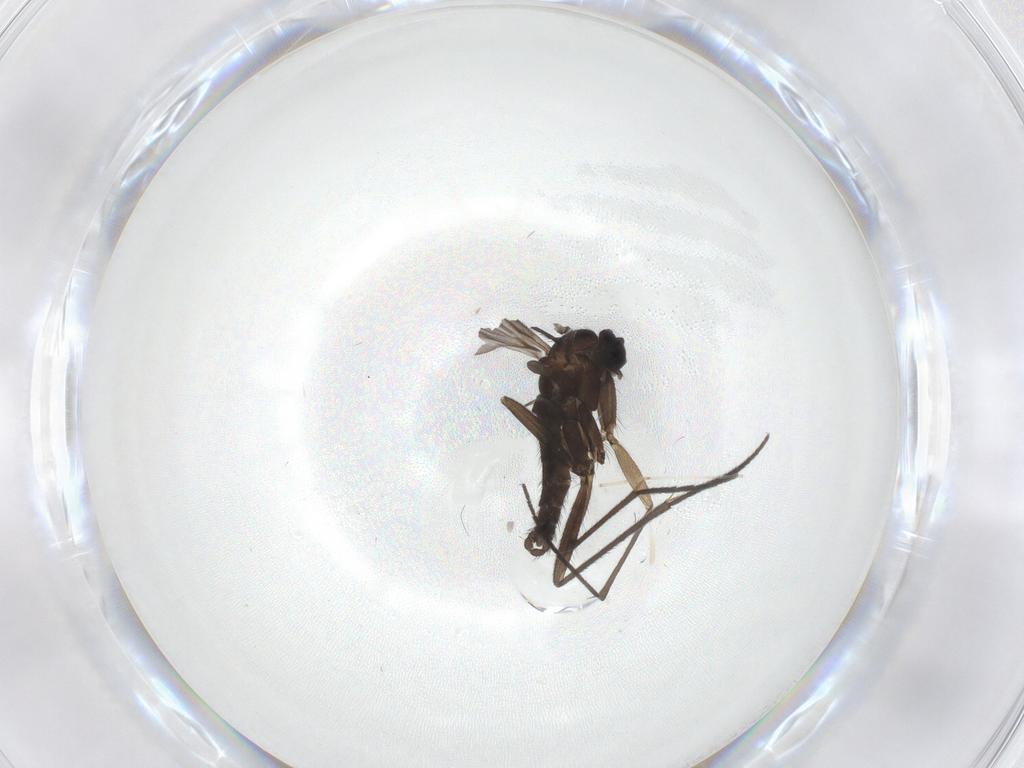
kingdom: Animalia
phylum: Arthropoda
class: Insecta
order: Diptera
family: Sciaridae
